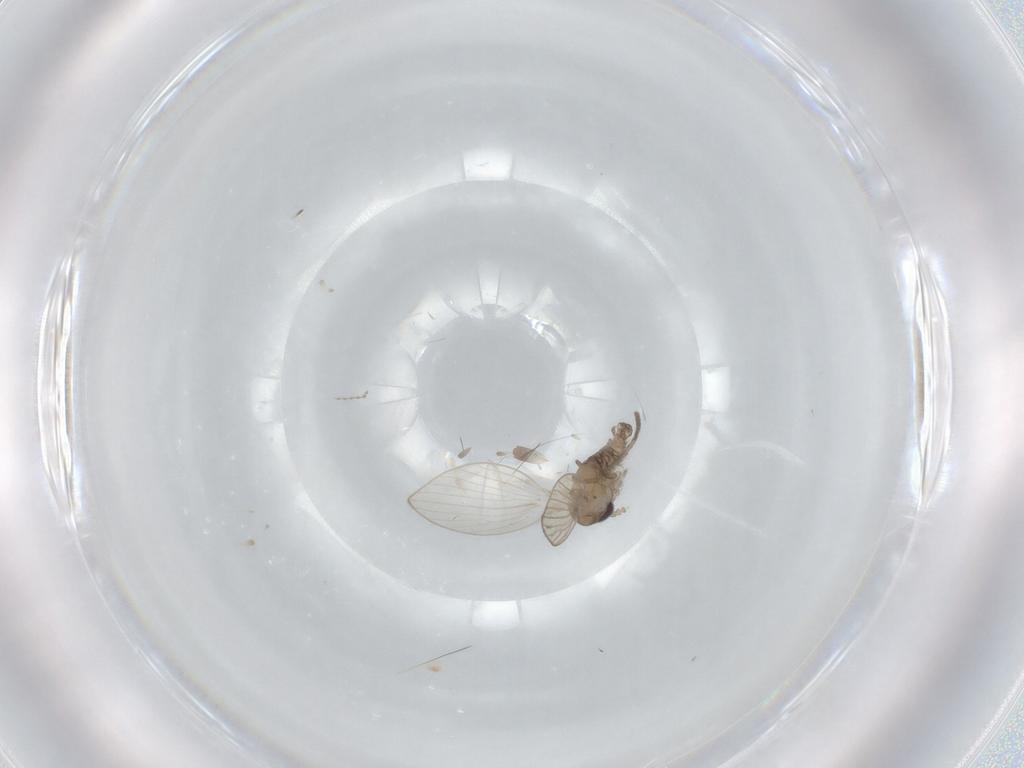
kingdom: Animalia
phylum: Arthropoda
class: Insecta
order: Diptera
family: Psychodidae
